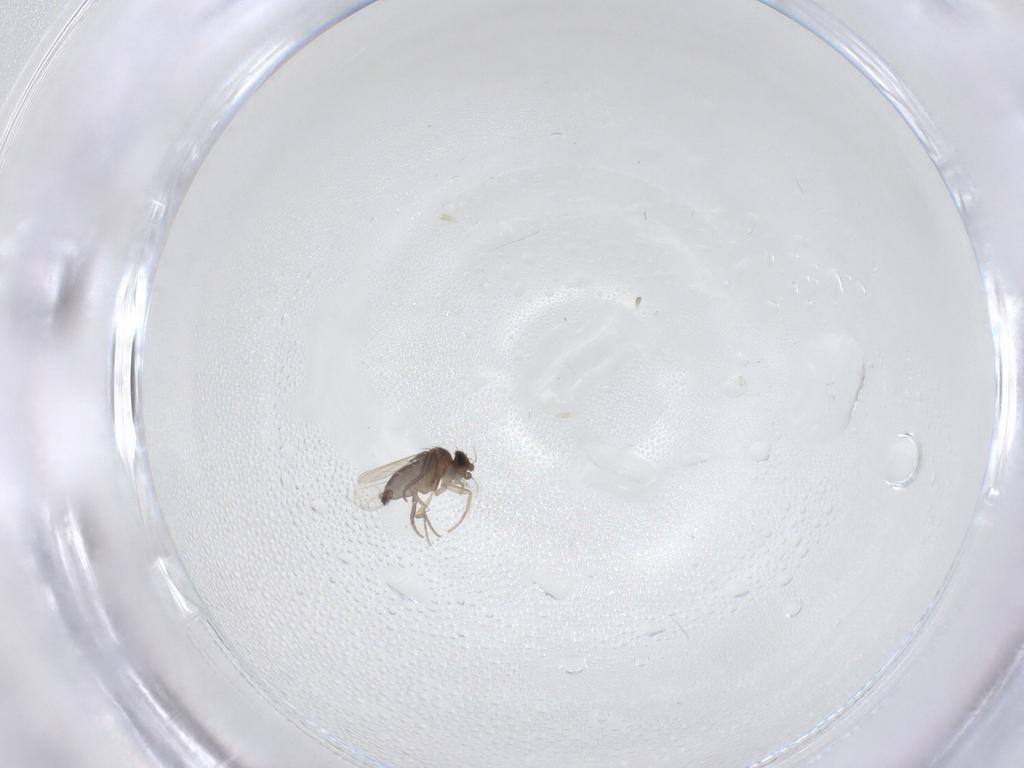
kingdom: Animalia
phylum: Arthropoda
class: Insecta
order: Diptera
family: Phoridae
